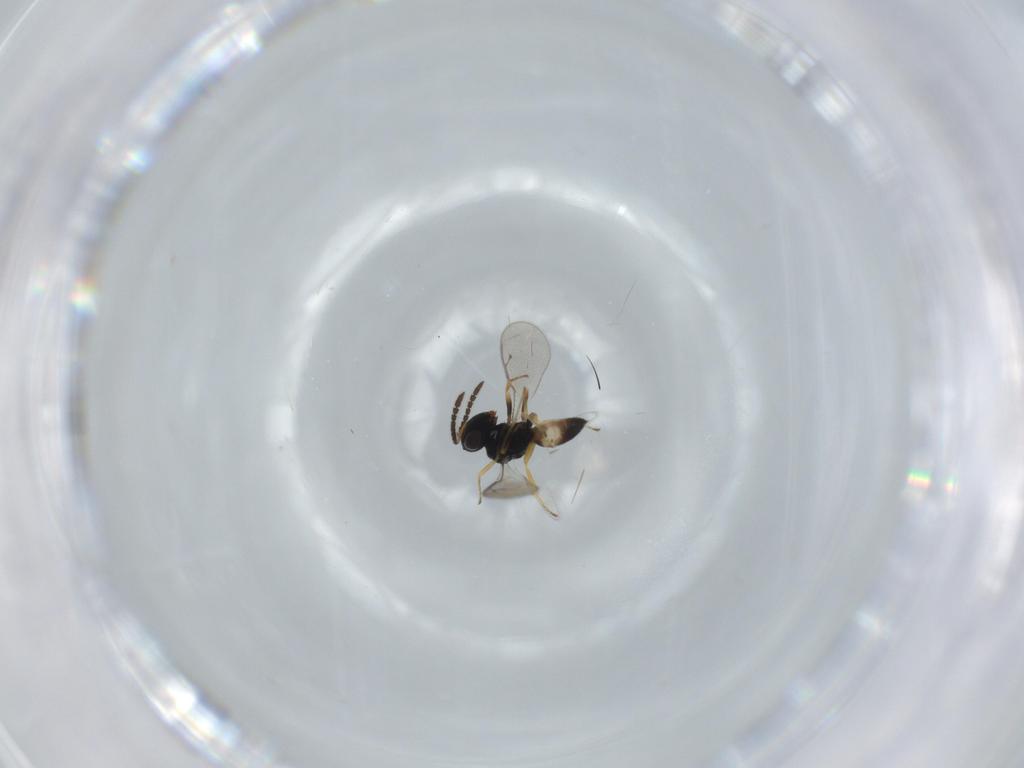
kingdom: Animalia
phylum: Arthropoda
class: Insecta
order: Hymenoptera
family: Pteromalidae
